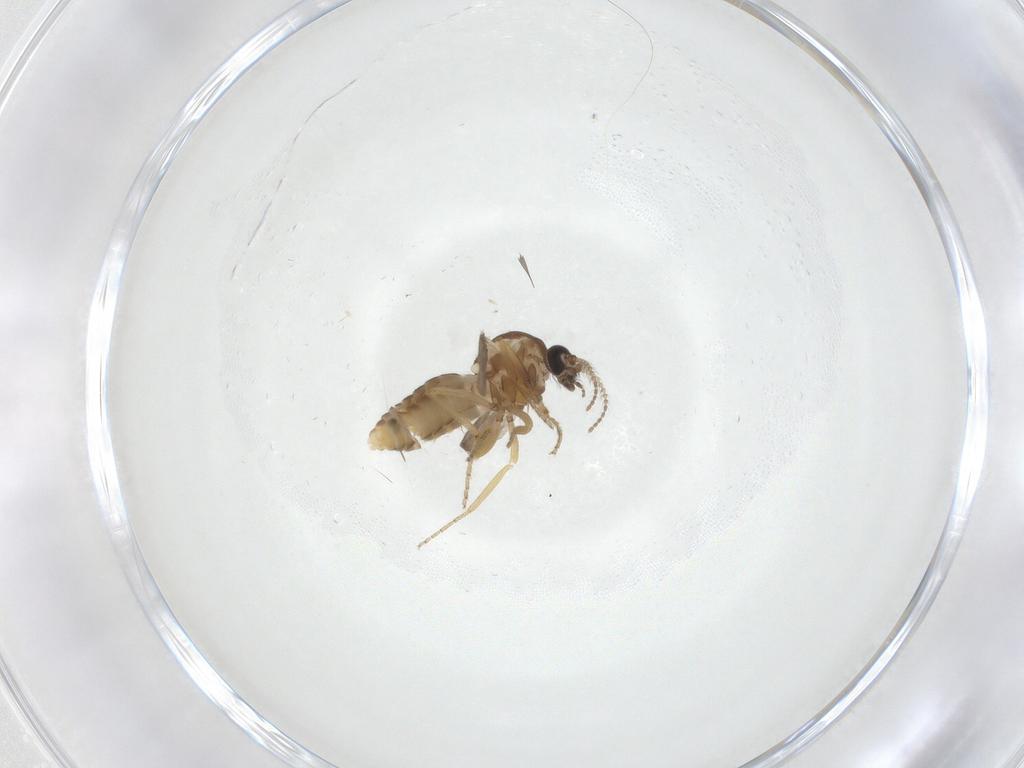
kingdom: Animalia
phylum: Arthropoda
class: Insecta
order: Diptera
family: Ceratopogonidae
